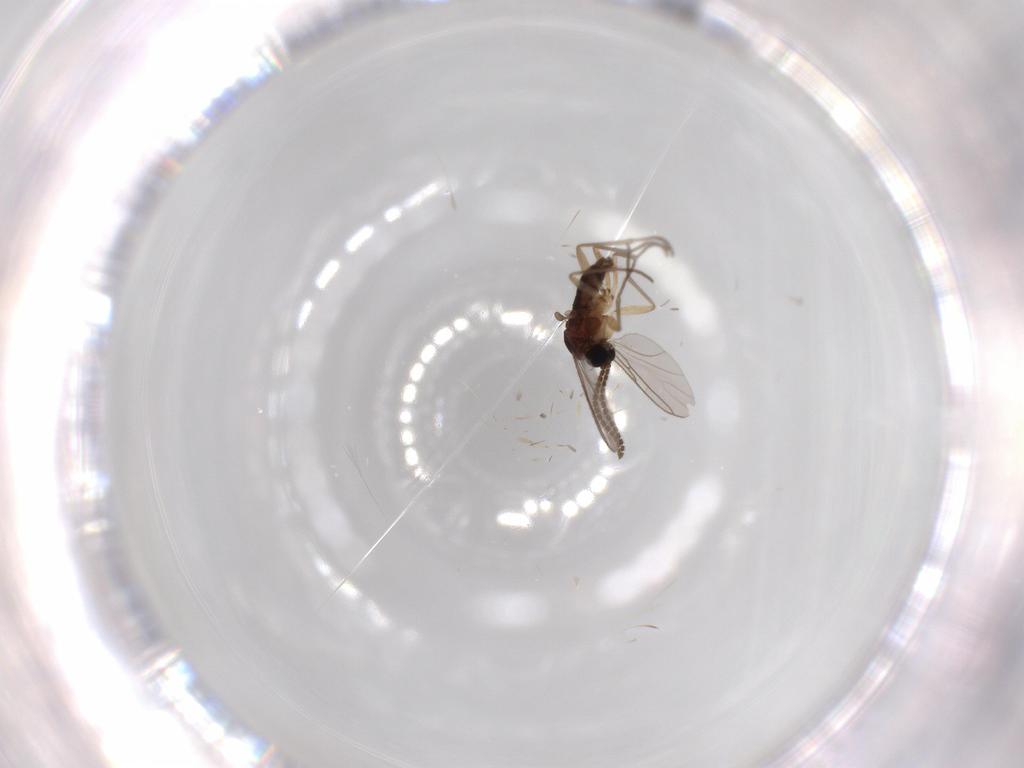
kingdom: Animalia
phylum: Arthropoda
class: Insecta
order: Diptera
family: Sciaridae
